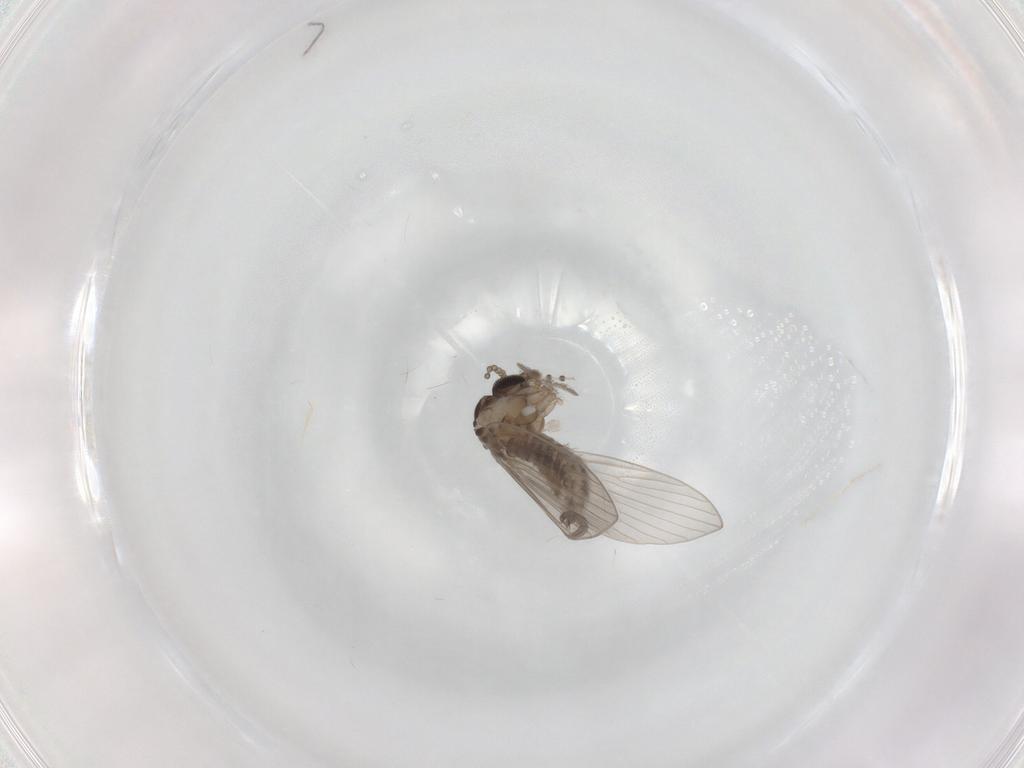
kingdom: Animalia
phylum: Arthropoda
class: Insecta
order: Diptera
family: Psychodidae
